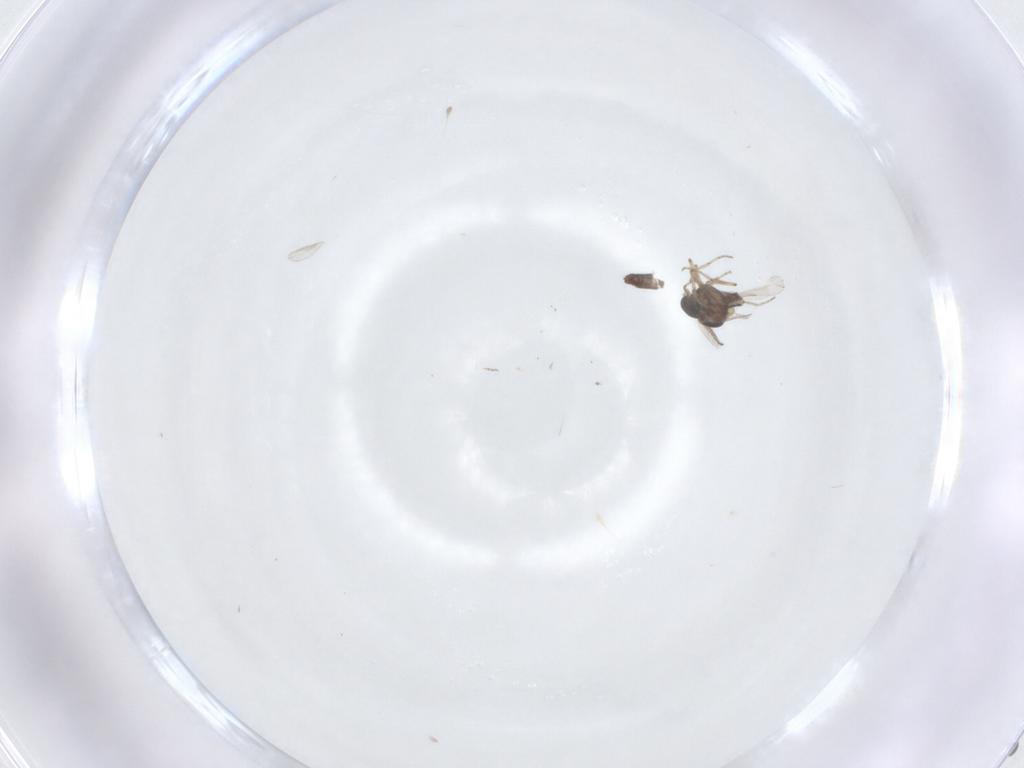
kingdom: Animalia
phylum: Arthropoda
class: Insecta
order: Diptera
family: Ceratopogonidae
